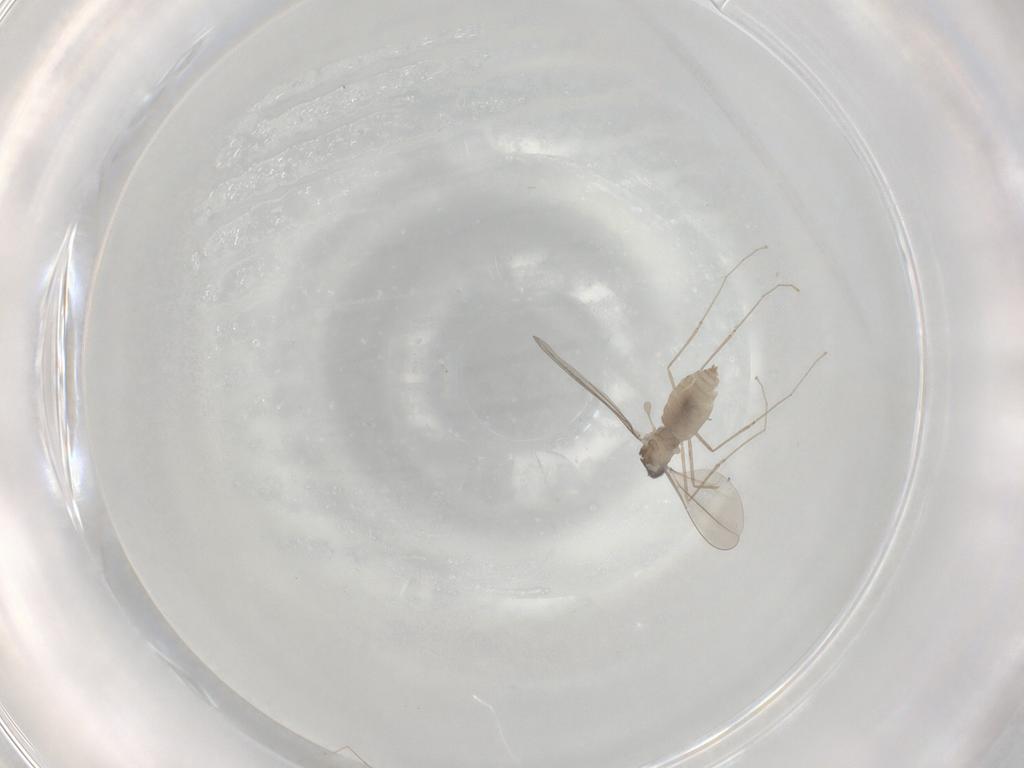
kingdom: Animalia
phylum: Arthropoda
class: Insecta
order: Diptera
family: Cecidomyiidae
